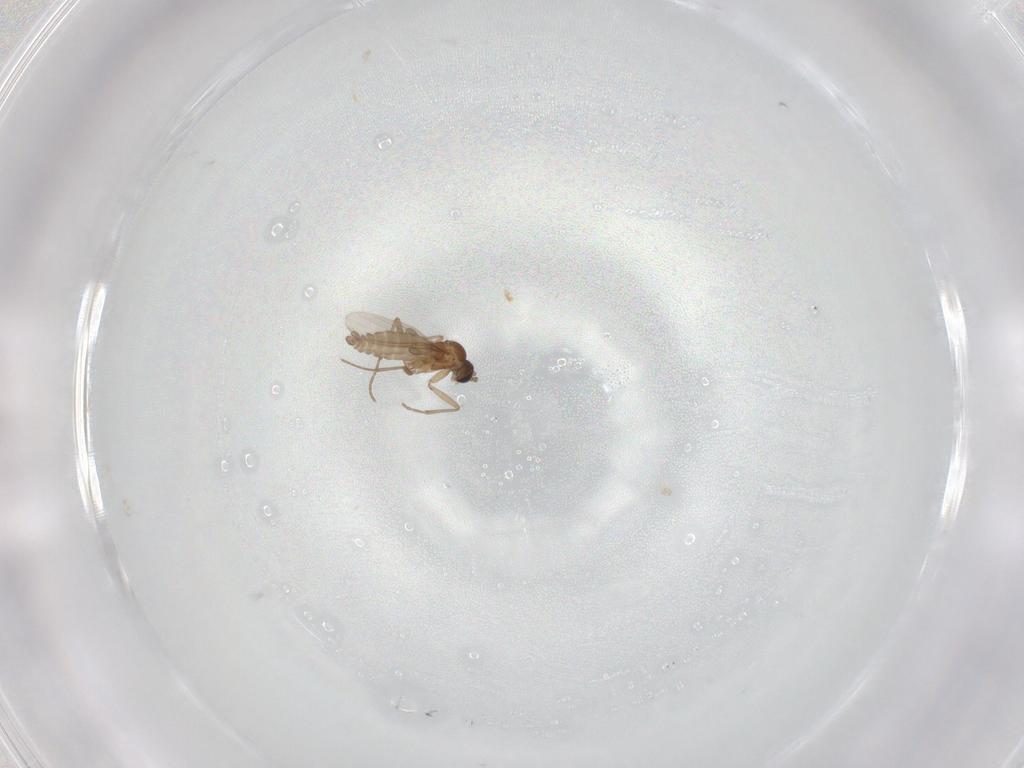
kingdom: Animalia
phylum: Arthropoda
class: Insecta
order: Diptera
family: Sciaridae
